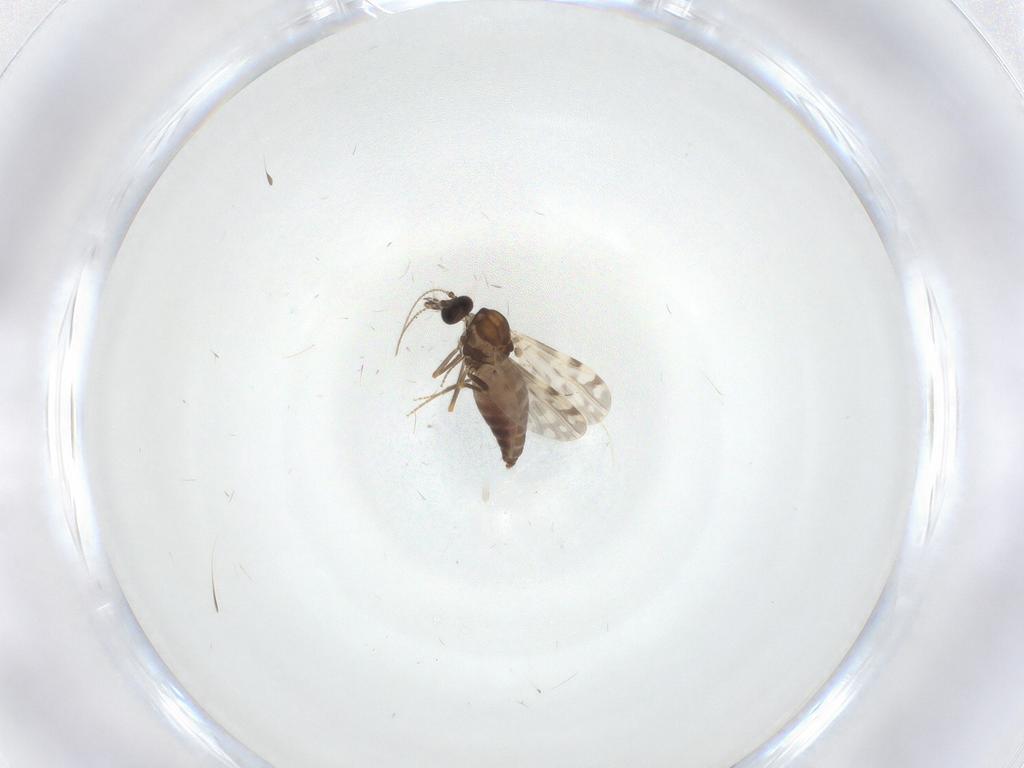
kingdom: Animalia
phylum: Arthropoda
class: Insecta
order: Diptera
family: Ceratopogonidae
